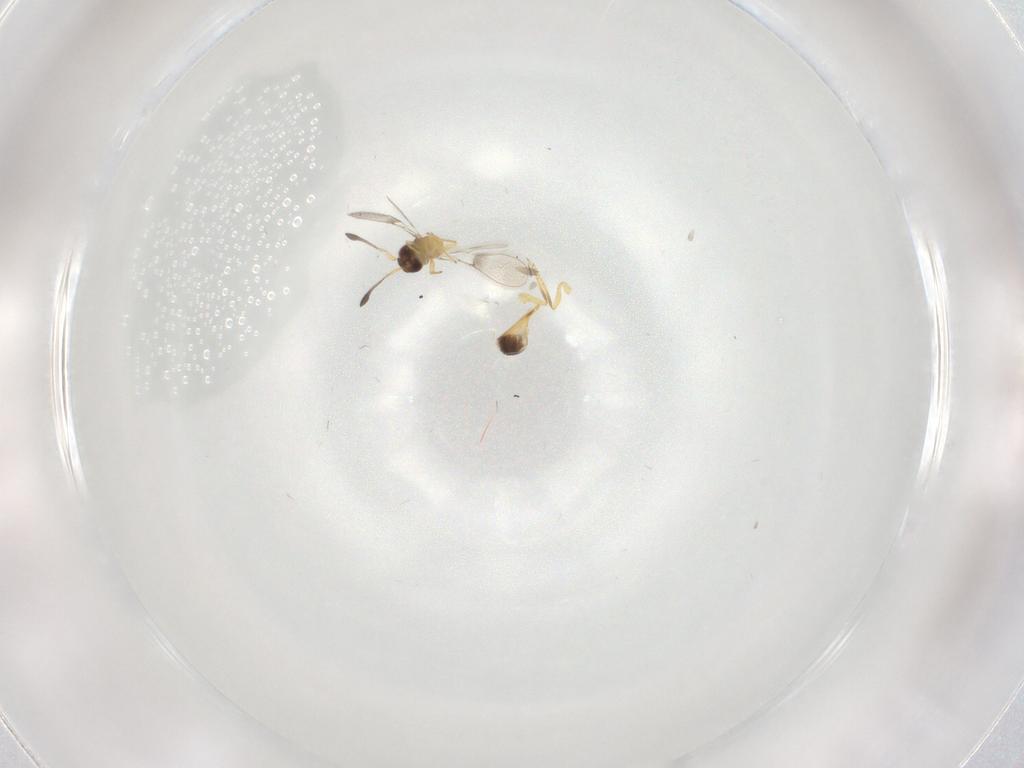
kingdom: Animalia
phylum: Arthropoda
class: Insecta
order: Hymenoptera
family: Mymaridae
